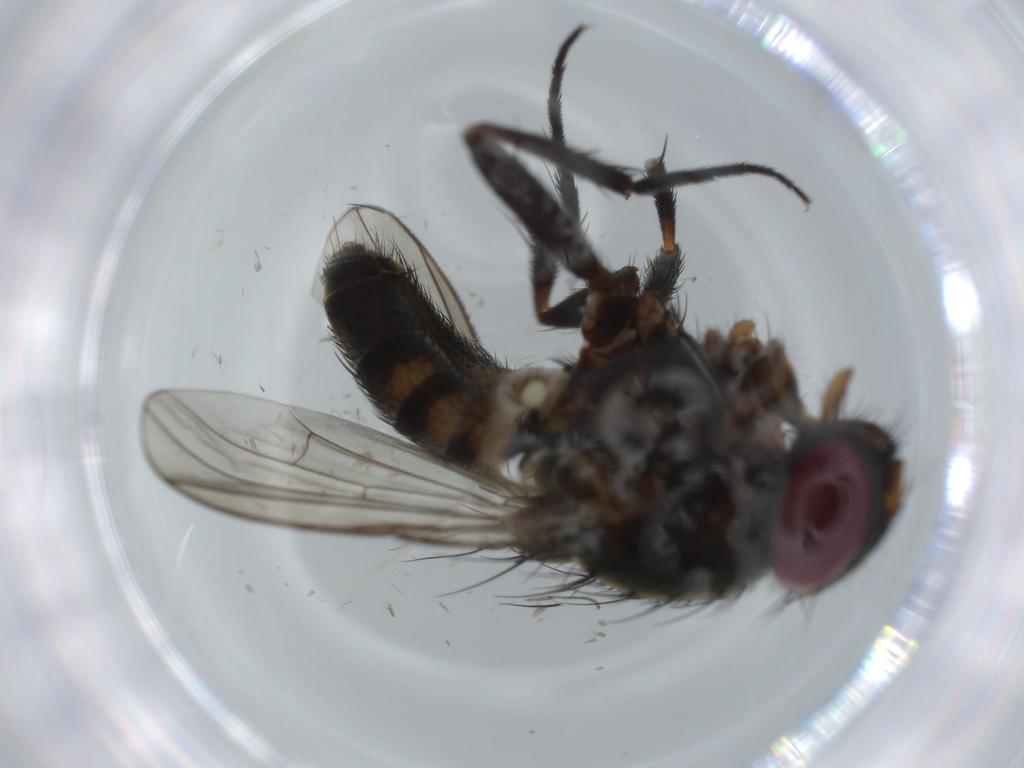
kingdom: Animalia
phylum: Arthropoda
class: Insecta
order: Diptera
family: Psychodidae
